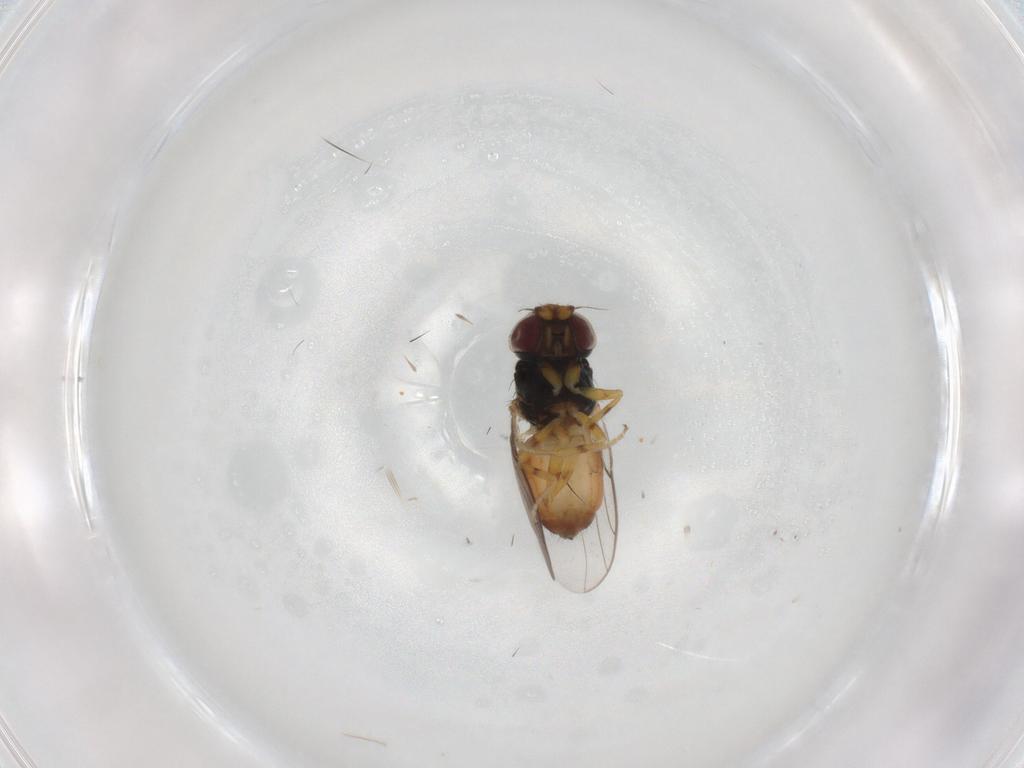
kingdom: Animalia
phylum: Arthropoda
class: Insecta
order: Diptera
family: Chloropidae
